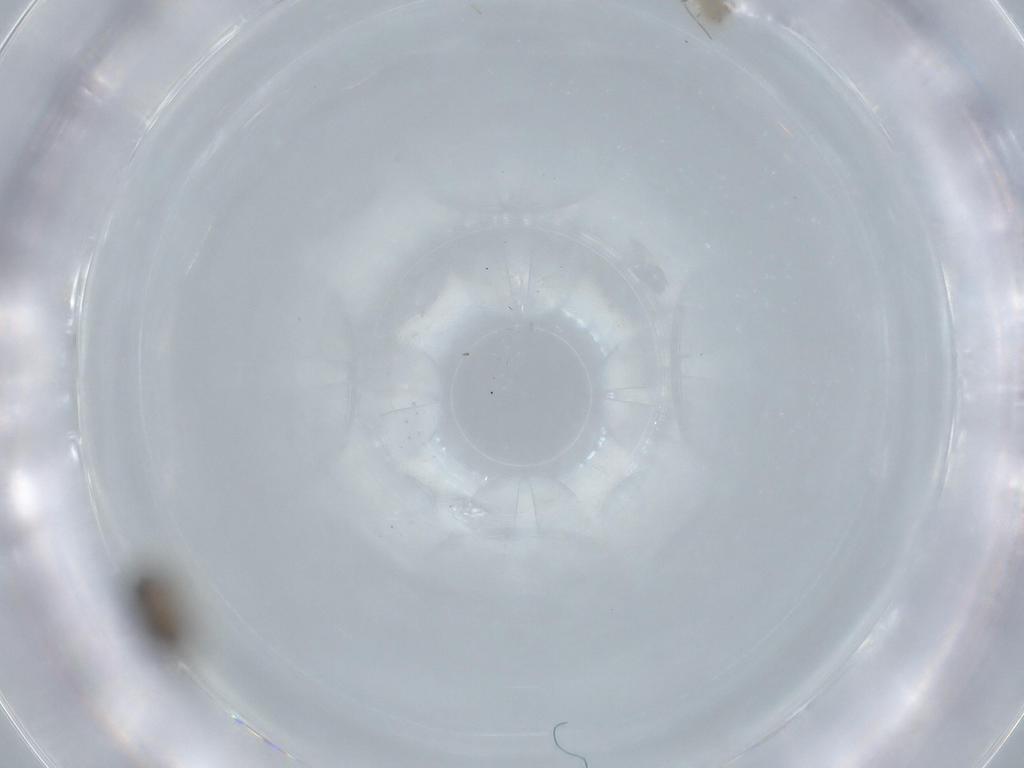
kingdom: Animalia
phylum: Arthropoda
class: Arachnida
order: Trombidiformes
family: Erythraeidae
